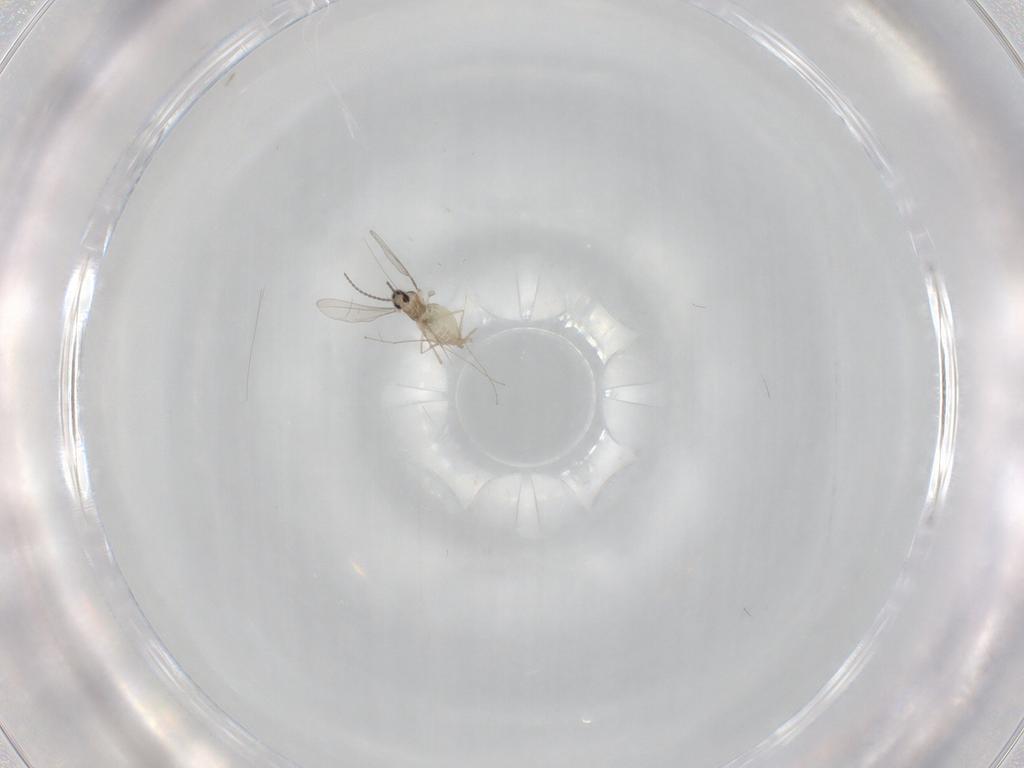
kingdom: Animalia
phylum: Arthropoda
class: Insecta
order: Diptera
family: Cecidomyiidae
